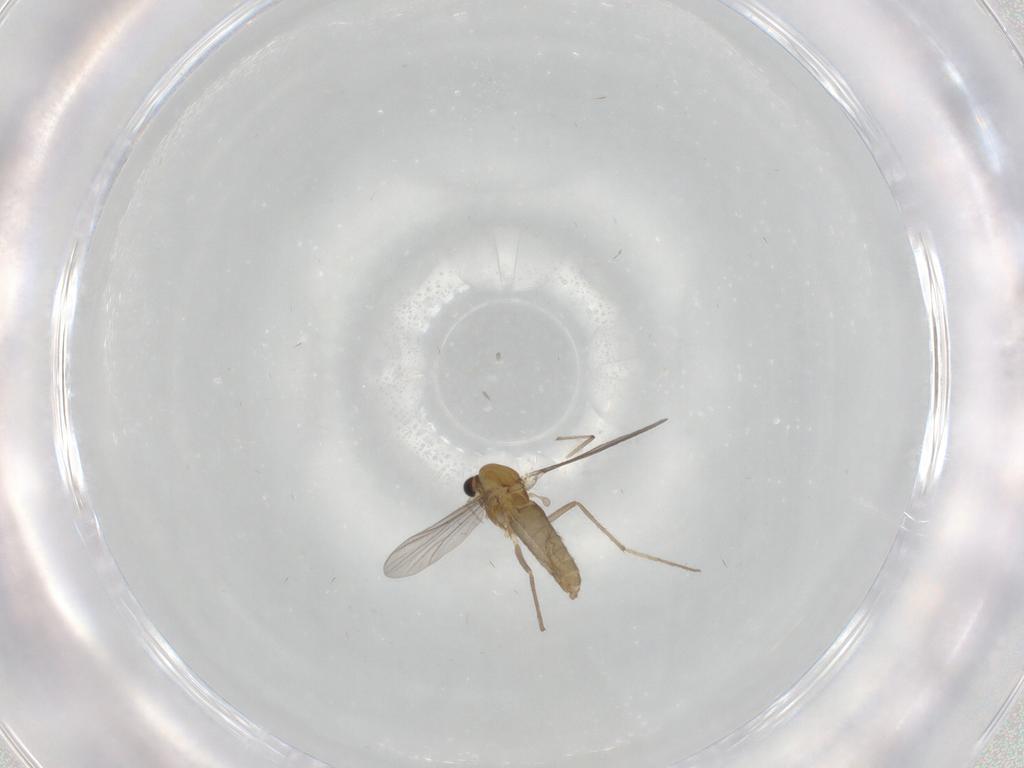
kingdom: Animalia
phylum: Arthropoda
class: Insecta
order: Diptera
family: Chironomidae
